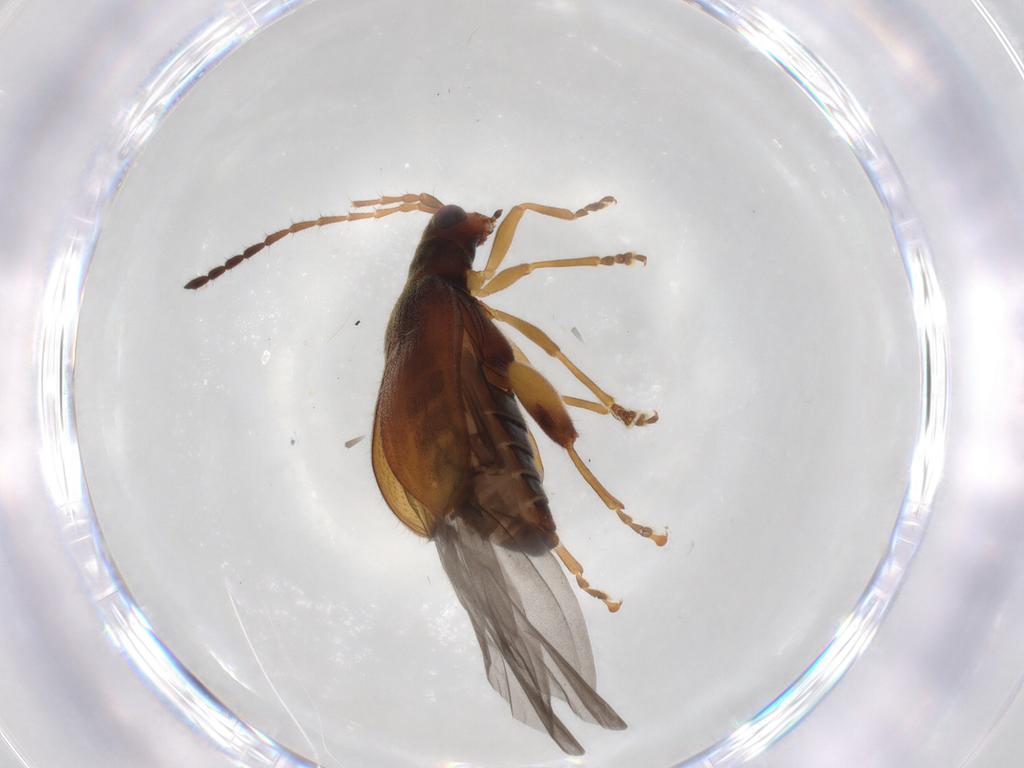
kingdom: Animalia
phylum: Arthropoda
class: Insecta
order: Coleoptera
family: Chrysomelidae
